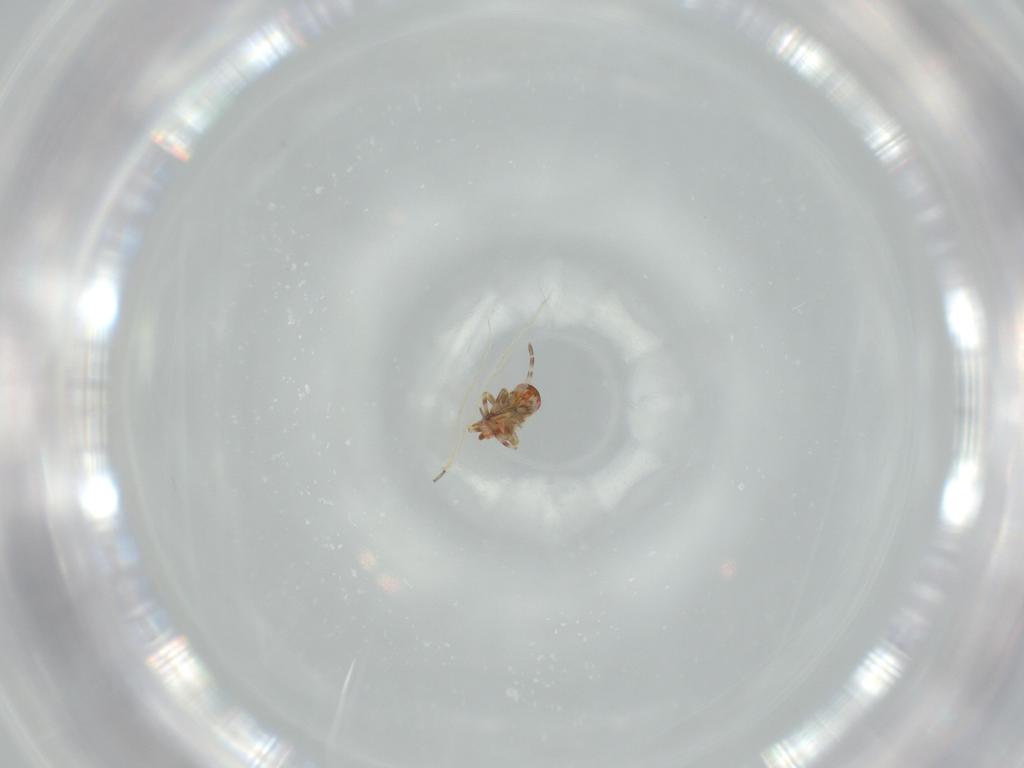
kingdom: Animalia
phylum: Arthropoda
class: Insecta
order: Hemiptera
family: Miridae
